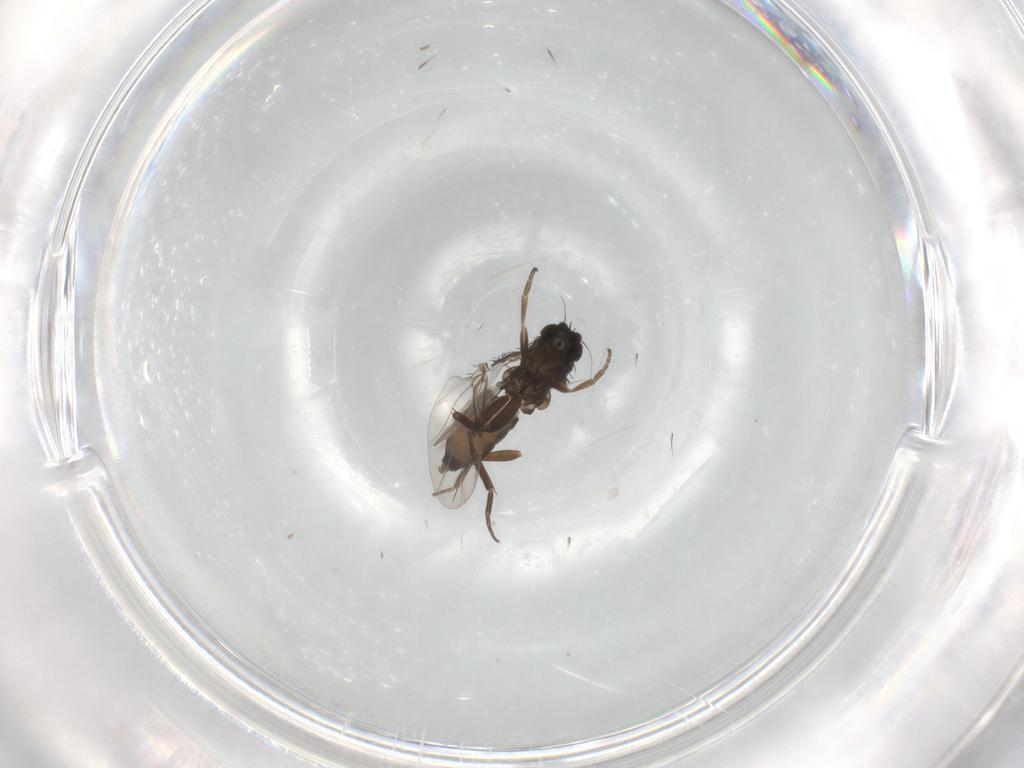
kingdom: Animalia
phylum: Arthropoda
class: Insecta
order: Diptera
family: Phoridae
